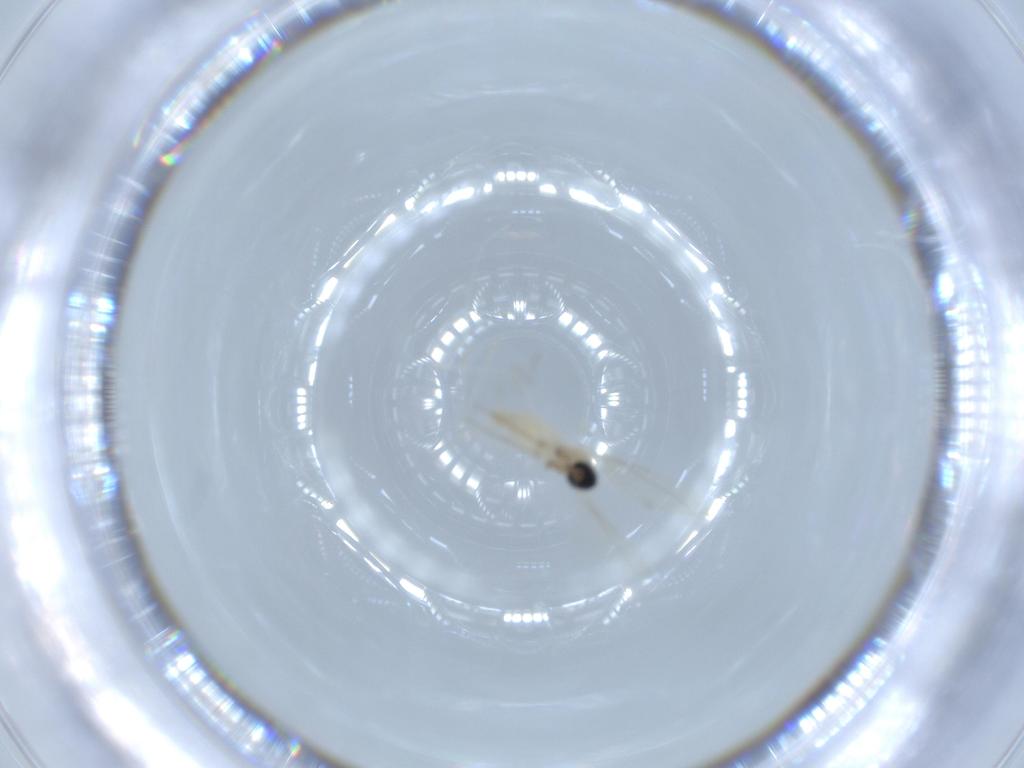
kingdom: Animalia
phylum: Arthropoda
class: Insecta
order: Diptera
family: Cecidomyiidae
